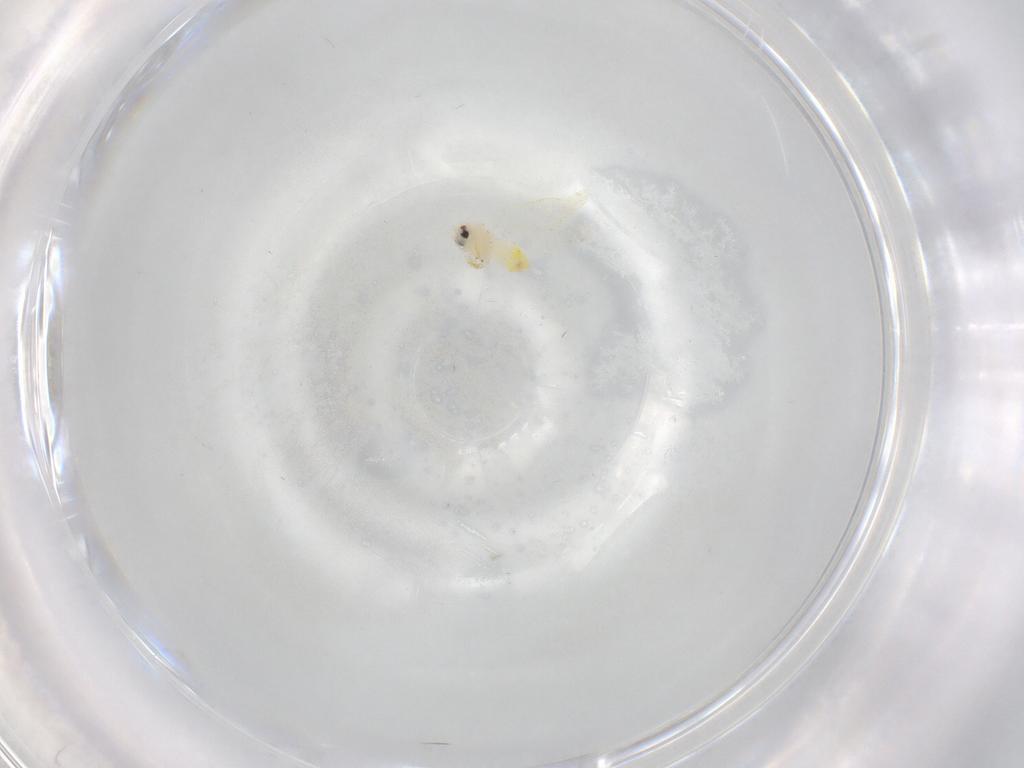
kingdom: Animalia
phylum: Arthropoda
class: Insecta
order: Hemiptera
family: Aleyrodidae
